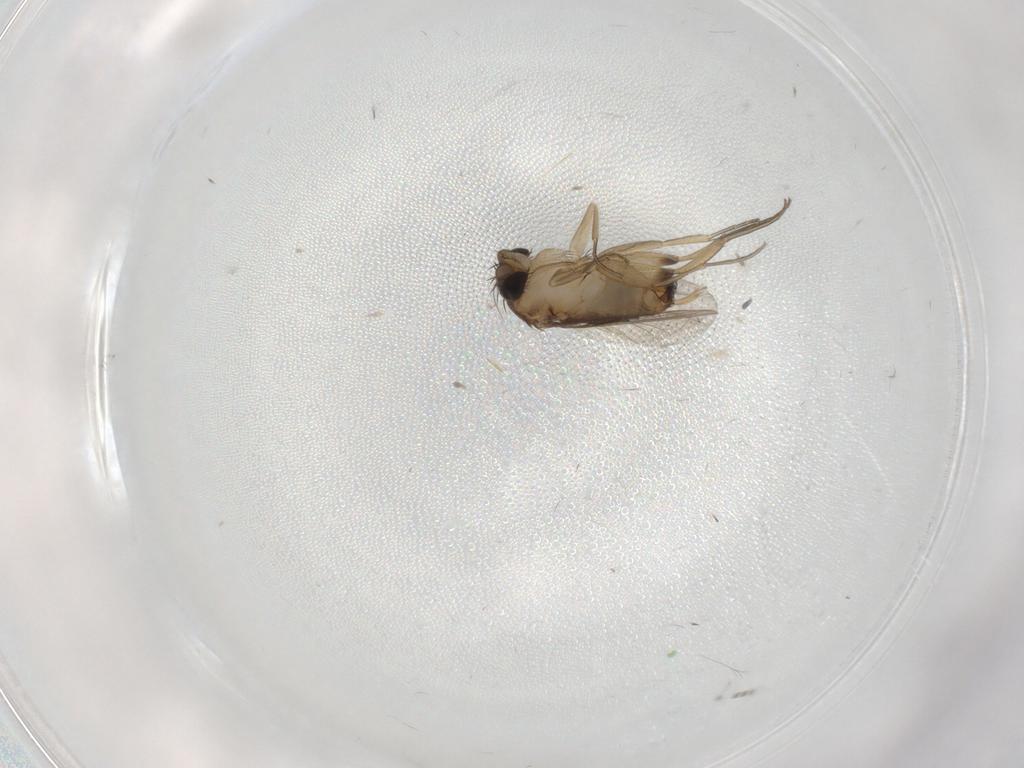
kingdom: Animalia
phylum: Arthropoda
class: Insecta
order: Diptera
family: Phoridae
